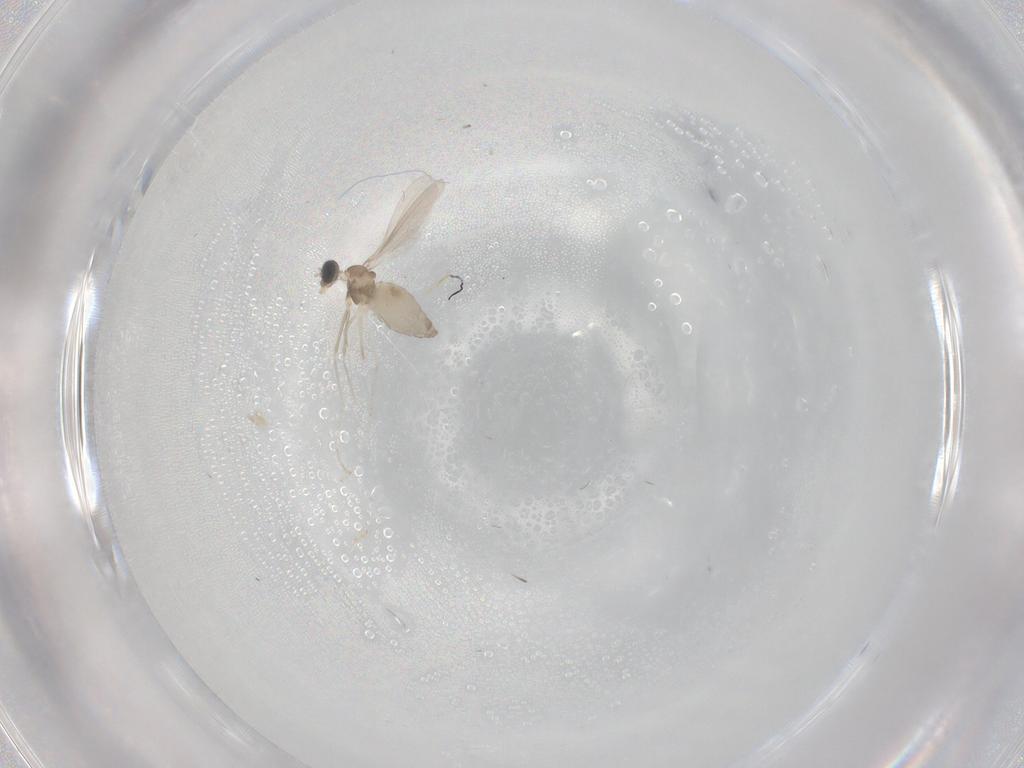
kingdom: Animalia
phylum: Arthropoda
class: Insecta
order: Diptera
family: Cecidomyiidae
